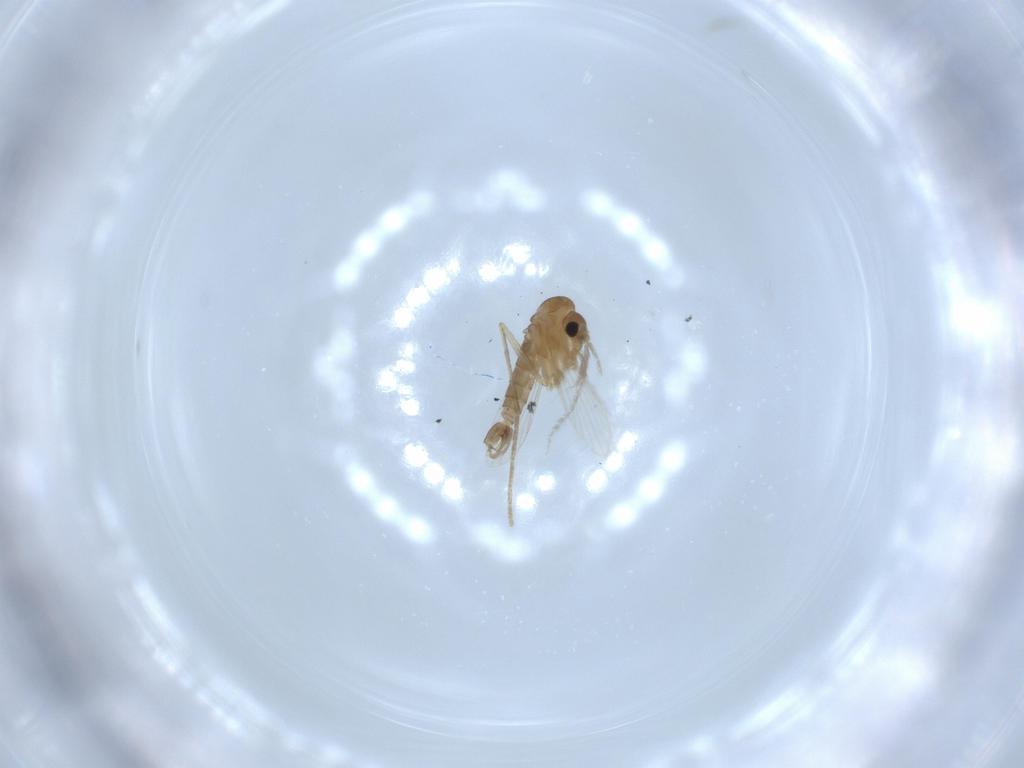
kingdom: Animalia
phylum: Arthropoda
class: Insecta
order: Diptera
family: Psychodidae
